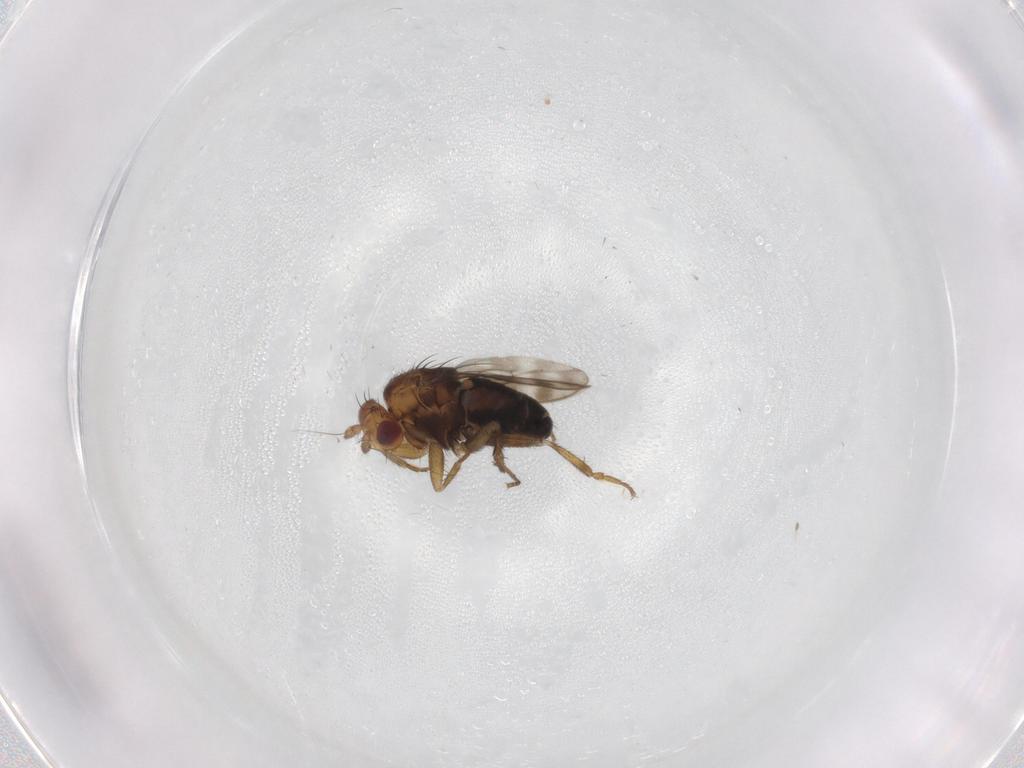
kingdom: Animalia
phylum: Arthropoda
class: Insecta
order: Diptera
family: Sphaeroceridae
